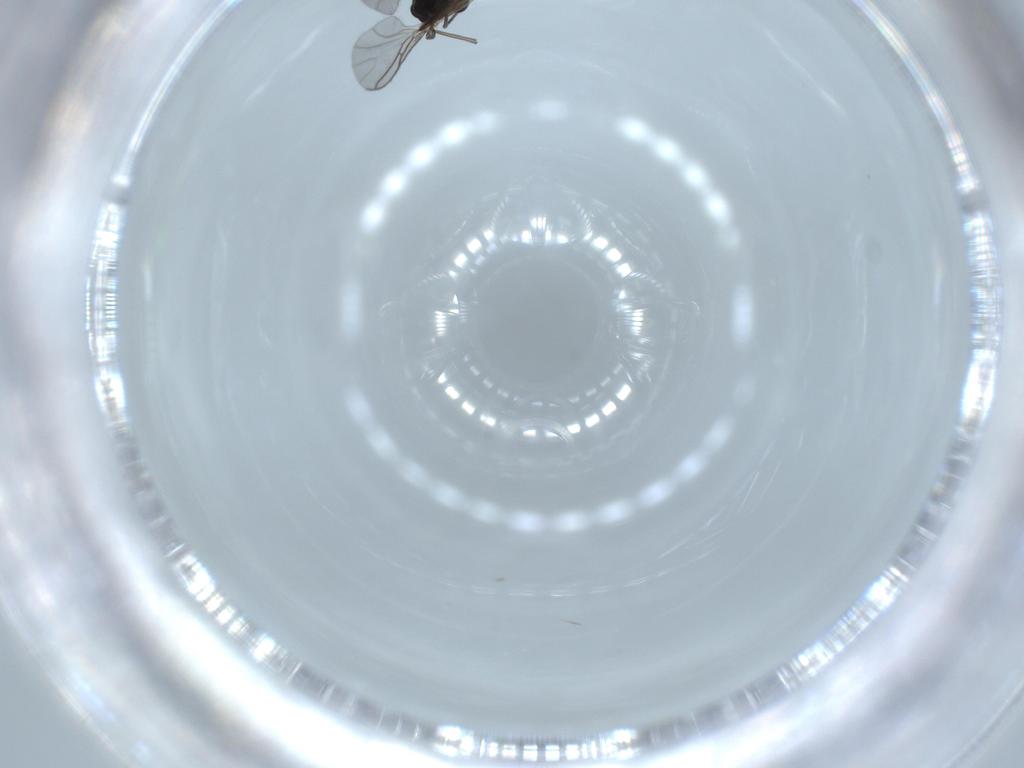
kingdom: Animalia
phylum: Arthropoda
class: Insecta
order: Diptera
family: Sciaridae
